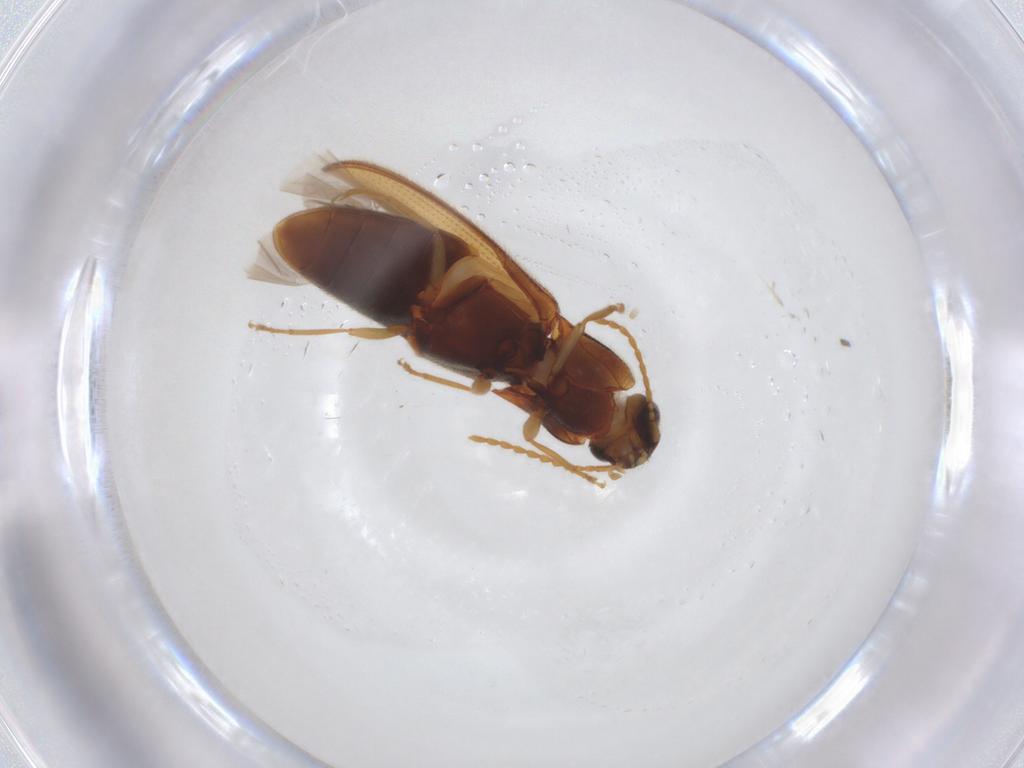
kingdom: Animalia
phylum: Arthropoda
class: Insecta
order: Coleoptera
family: Elateridae
